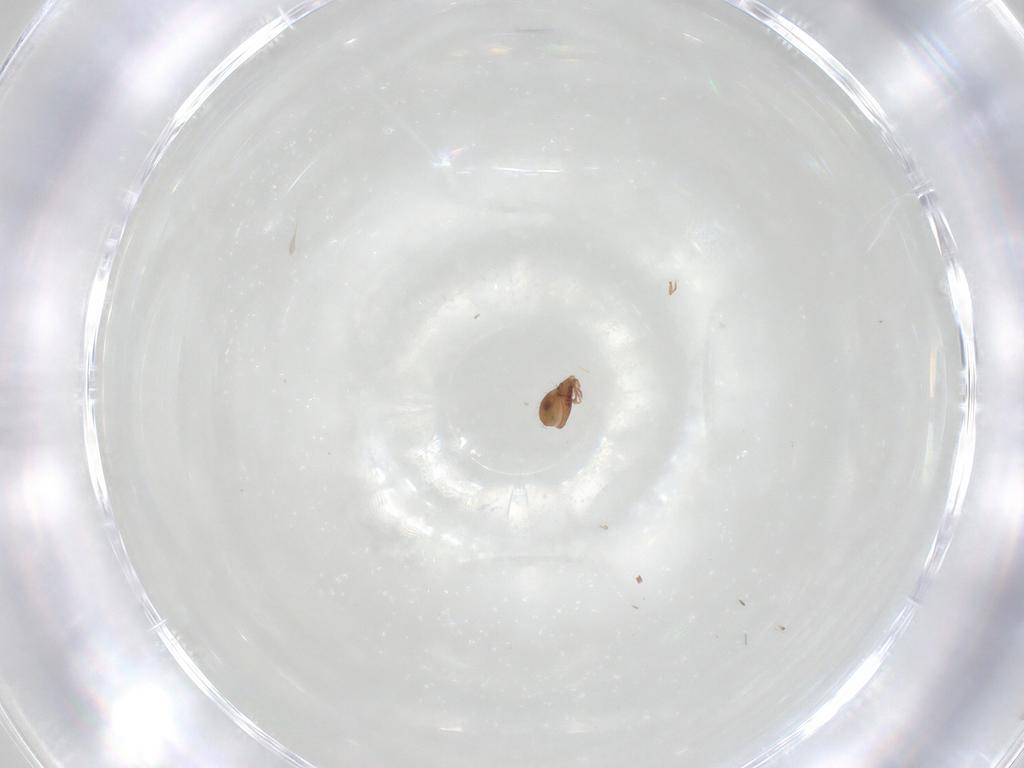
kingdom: Animalia
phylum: Arthropoda
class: Arachnida
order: Sarcoptiformes
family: Oribatulidae
